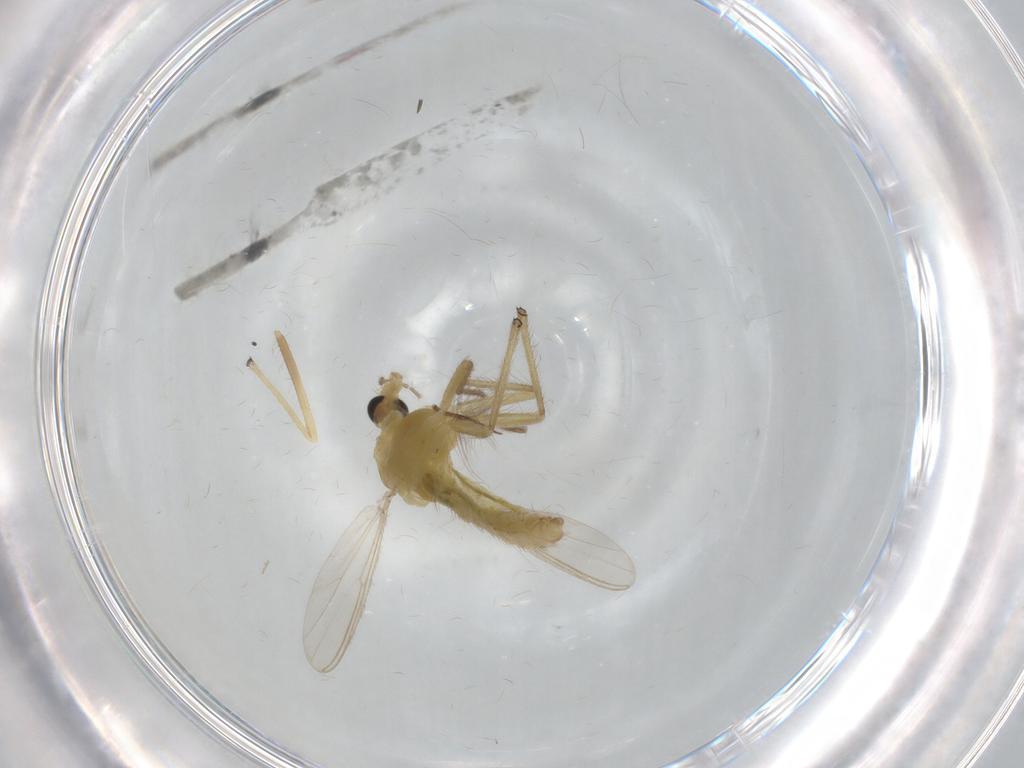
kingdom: Animalia
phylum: Arthropoda
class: Insecta
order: Diptera
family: Chironomidae
